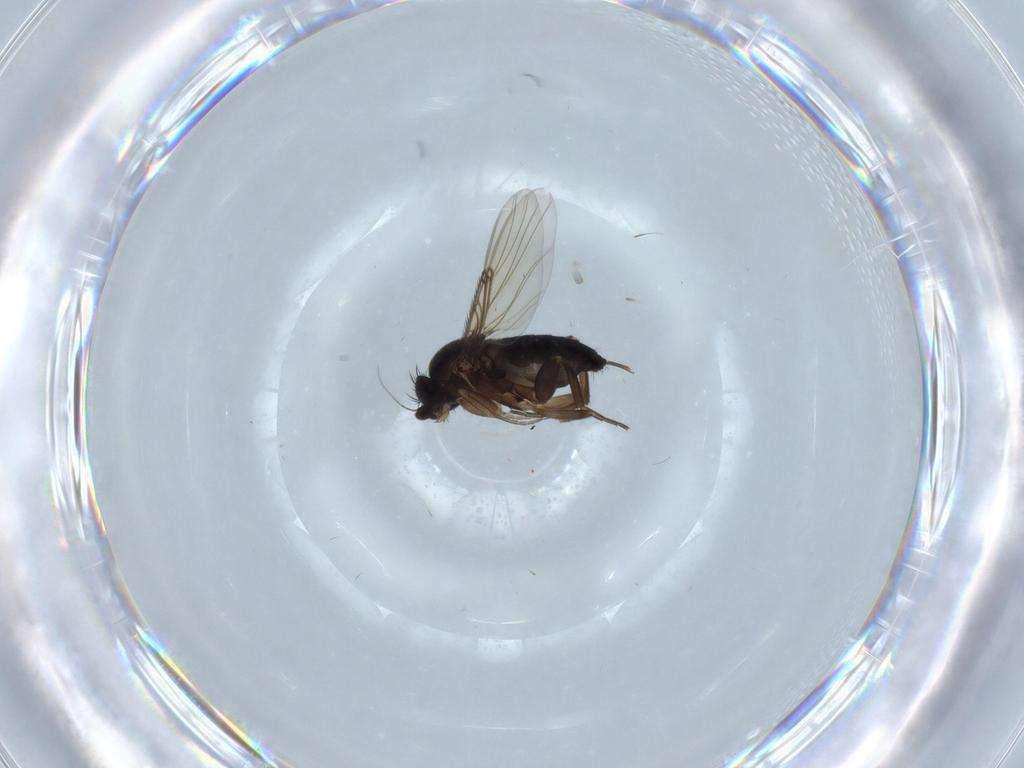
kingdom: Animalia
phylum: Arthropoda
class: Insecta
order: Diptera
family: Phoridae
